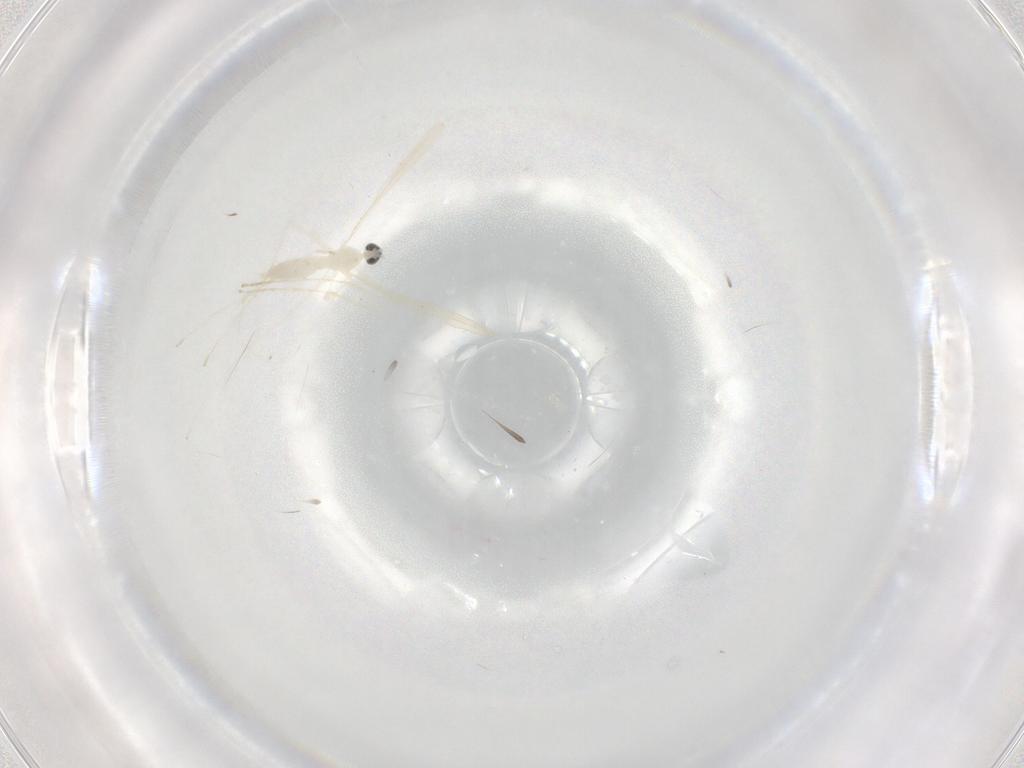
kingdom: Animalia
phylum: Arthropoda
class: Insecta
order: Diptera
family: Cecidomyiidae
